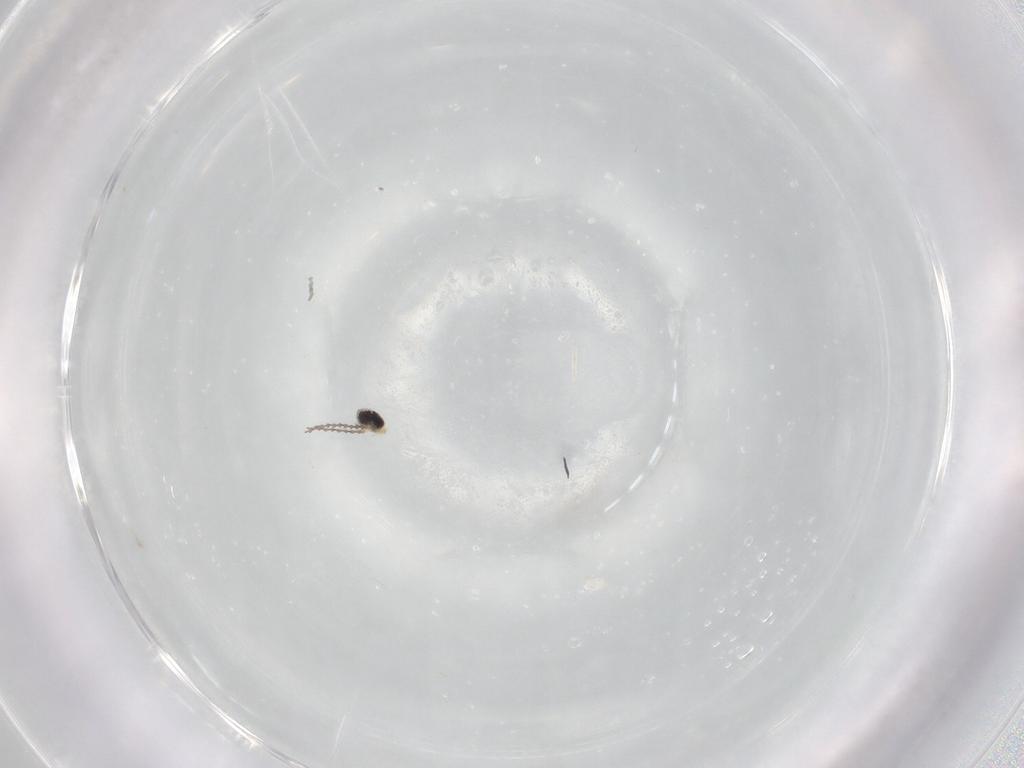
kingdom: Animalia
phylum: Arthropoda
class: Insecta
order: Diptera
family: Cecidomyiidae
